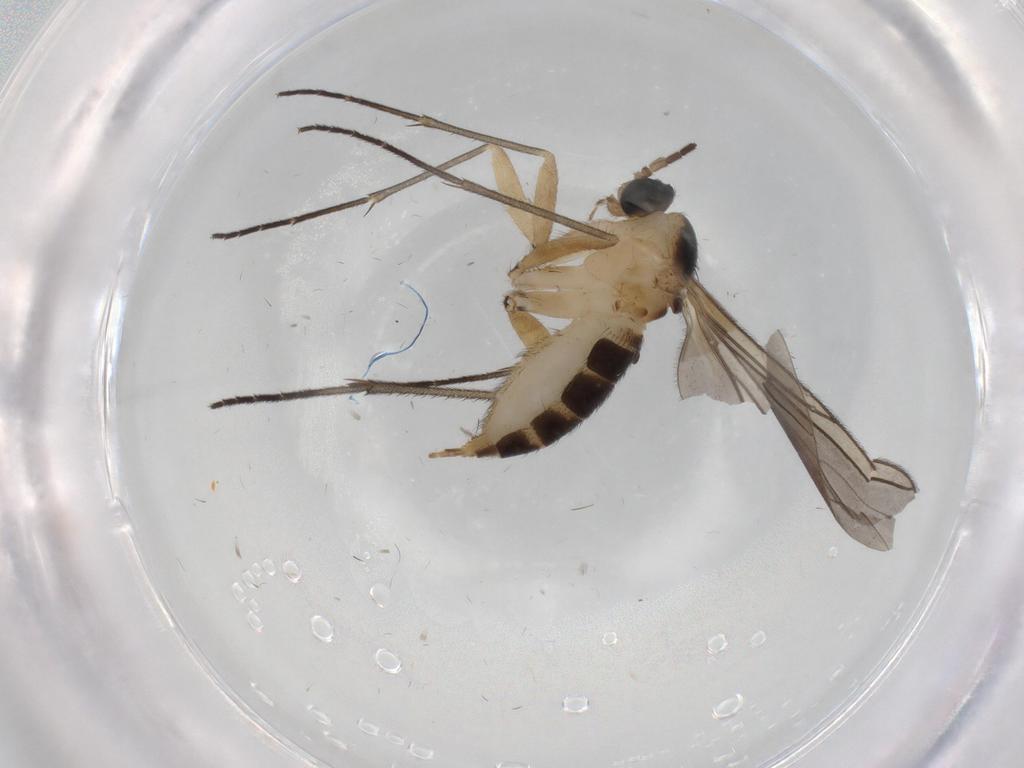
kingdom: Animalia
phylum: Arthropoda
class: Insecta
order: Diptera
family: Sciaridae
